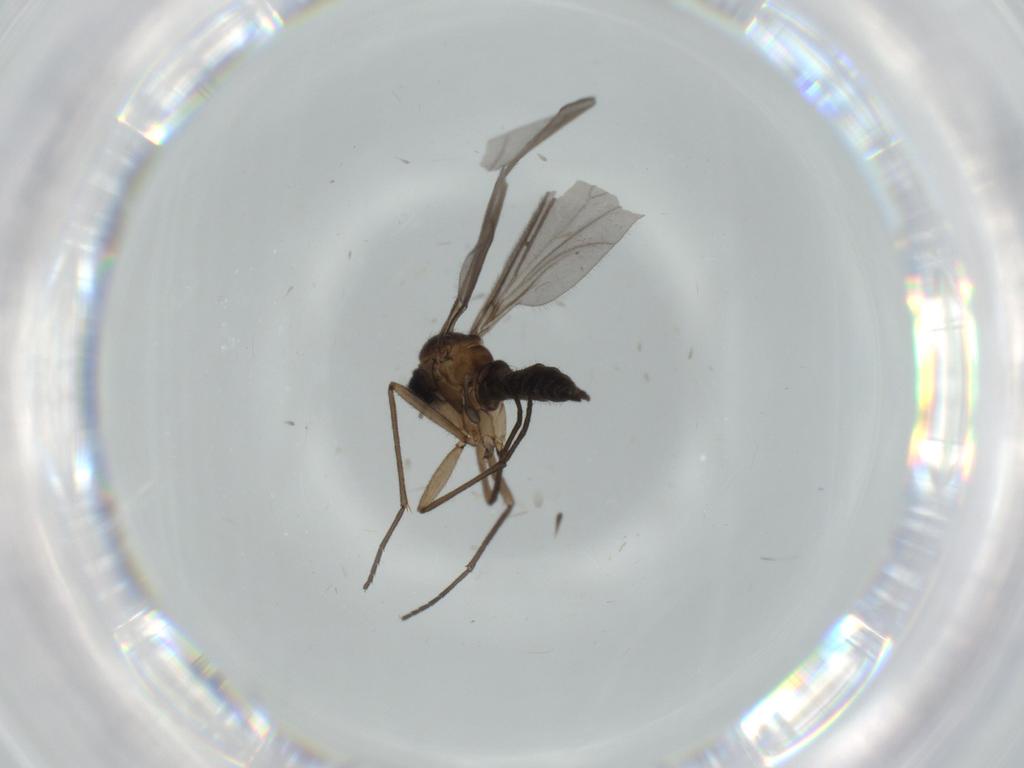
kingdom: Animalia
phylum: Arthropoda
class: Insecta
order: Diptera
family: Sciaridae
